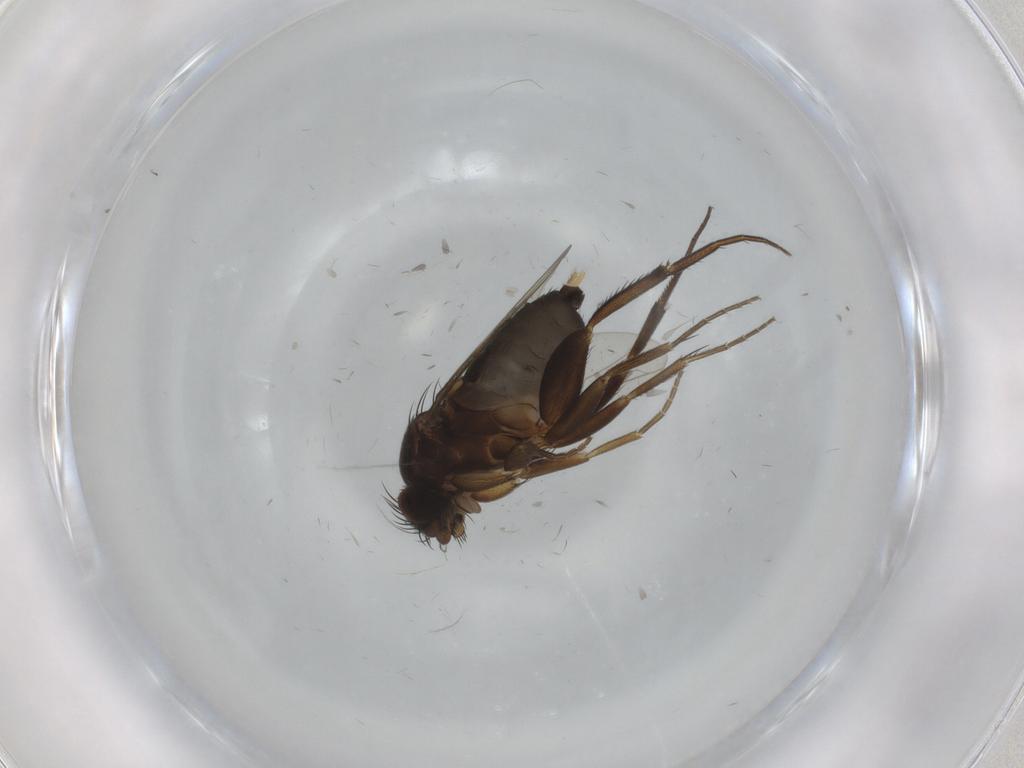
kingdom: Animalia
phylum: Arthropoda
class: Insecta
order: Diptera
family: Phoridae
